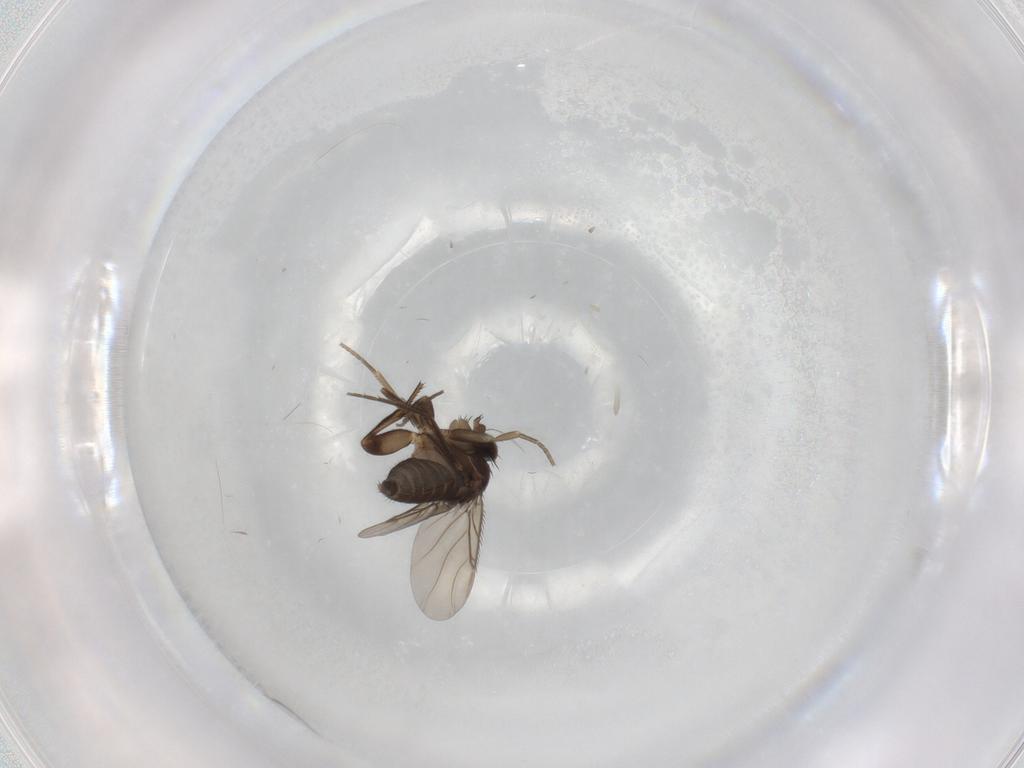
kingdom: Animalia
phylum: Arthropoda
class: Insecta
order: Diptera
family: Phoridae
